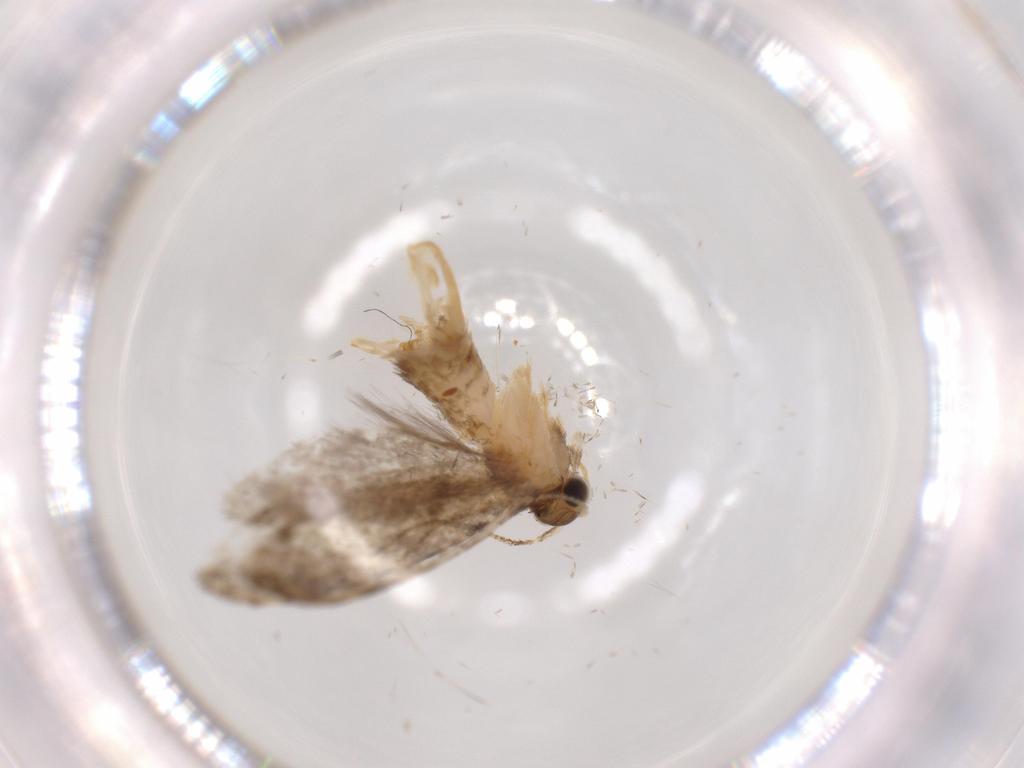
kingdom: Animalia
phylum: Arthropoda
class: Insecta
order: Lepidoptera
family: Tineidae
